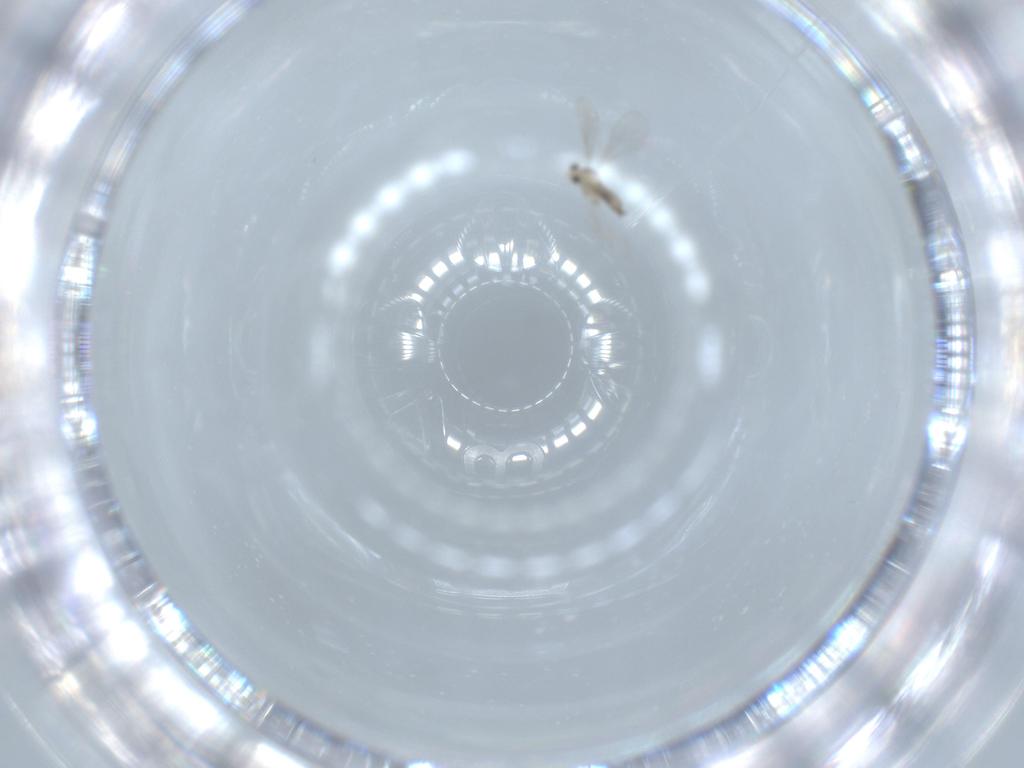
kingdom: Animalia
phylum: Arthropoda
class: Insecta
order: Diptera
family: Cecidomyiidae
